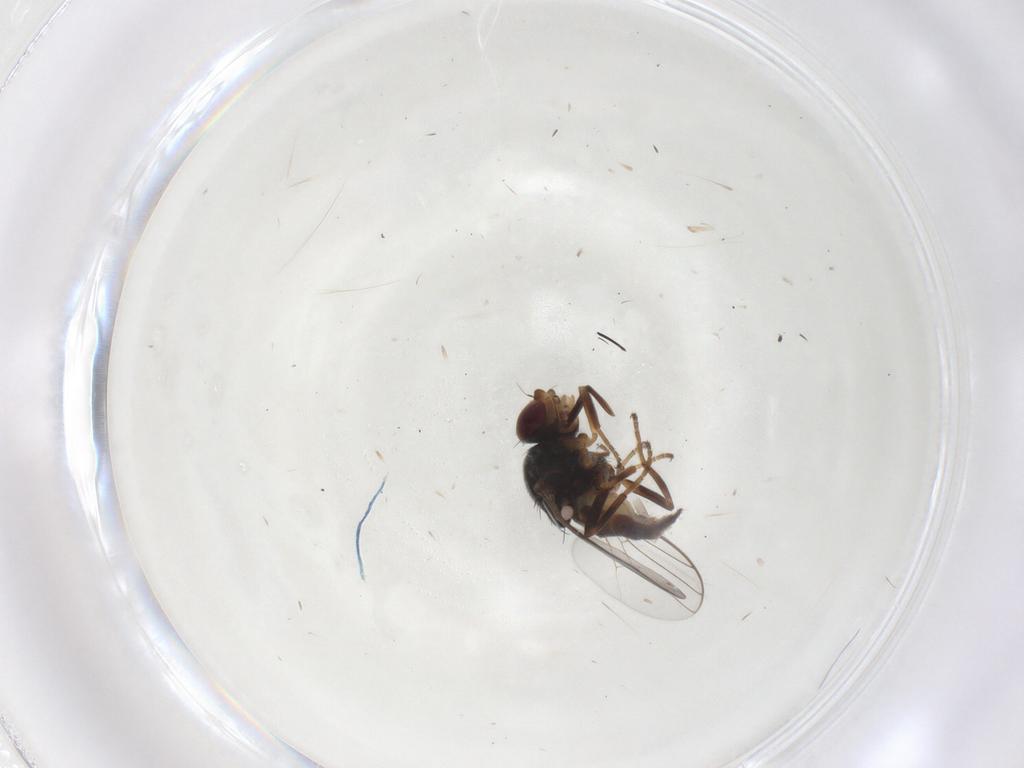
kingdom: Animalia
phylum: Arthropoda
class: Insecta
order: Diptera
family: Chloropidae
